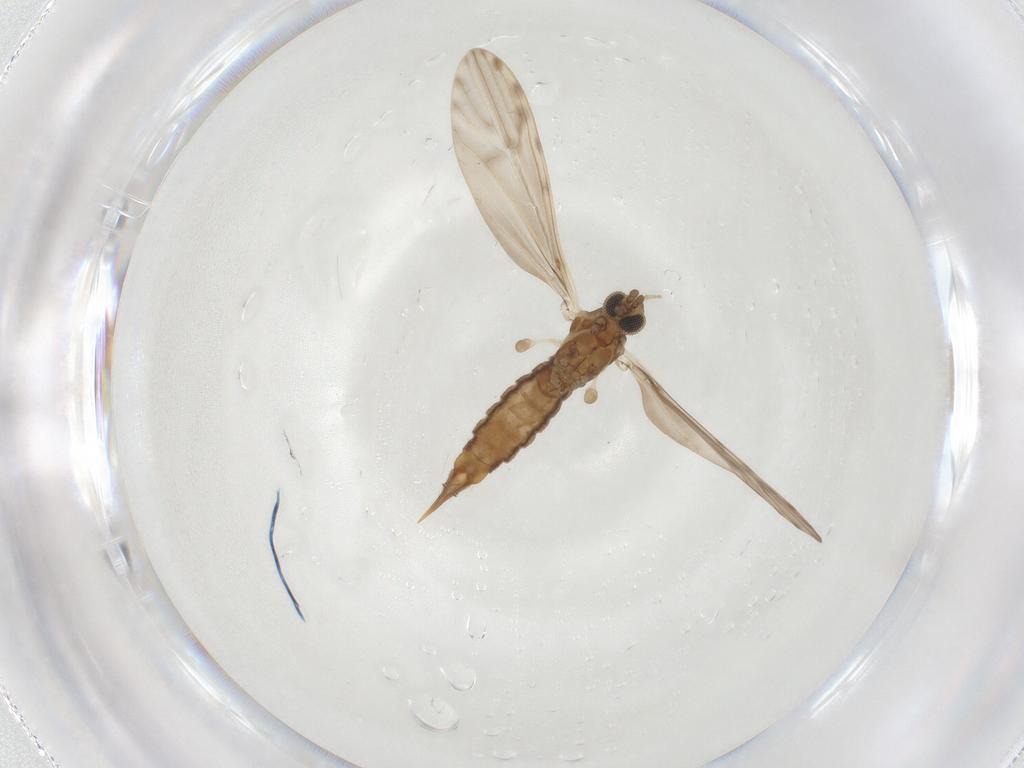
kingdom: Animalia
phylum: Arthropoda
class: Insecta
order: Diptera
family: Limoniidae
